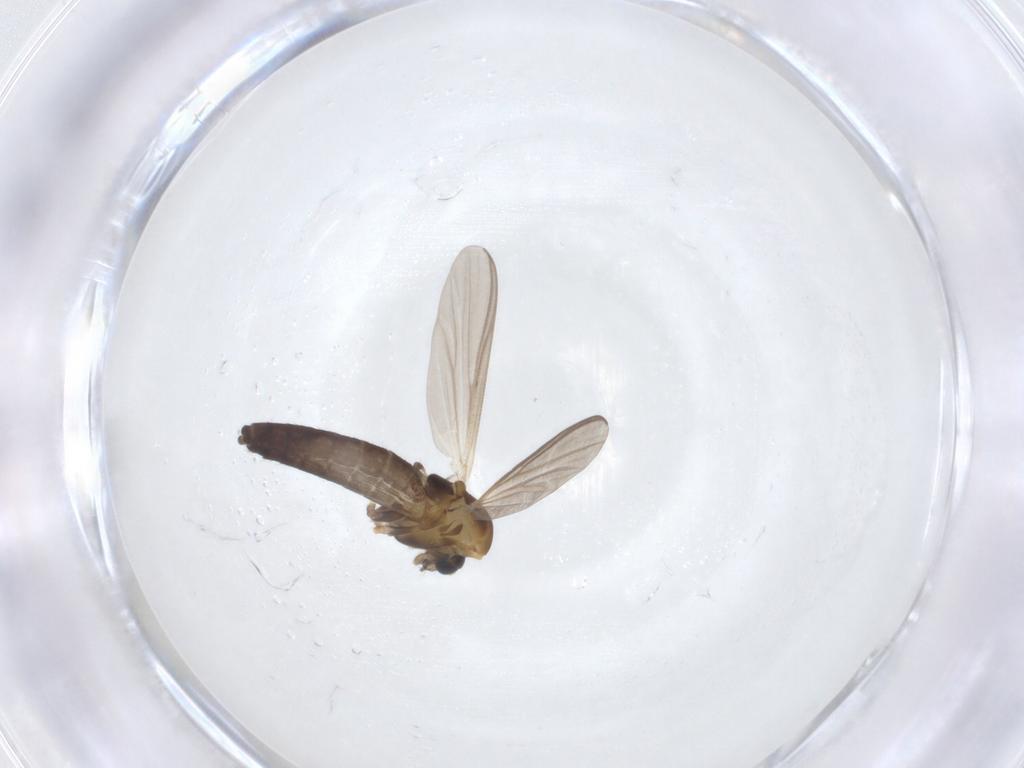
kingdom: Animalia
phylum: Arthropoda
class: Insecta
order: Diptera
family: Chironomidae
